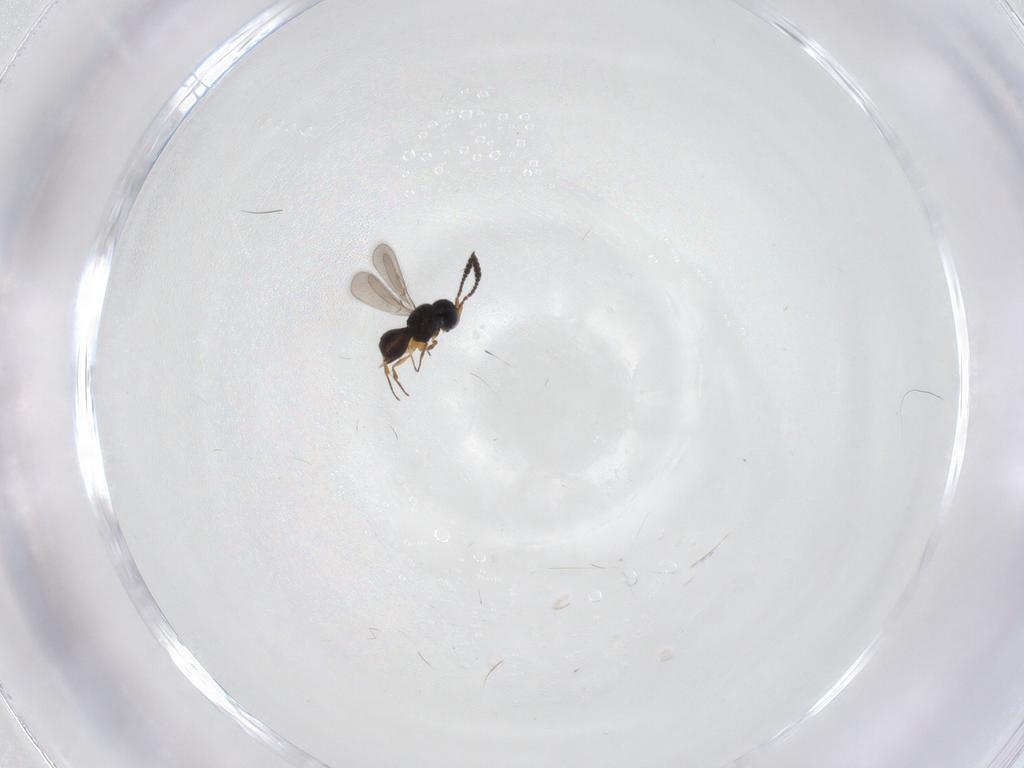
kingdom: Animalia
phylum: Arthropoda
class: Insecta
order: Hymenoptera
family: Scelionidae
